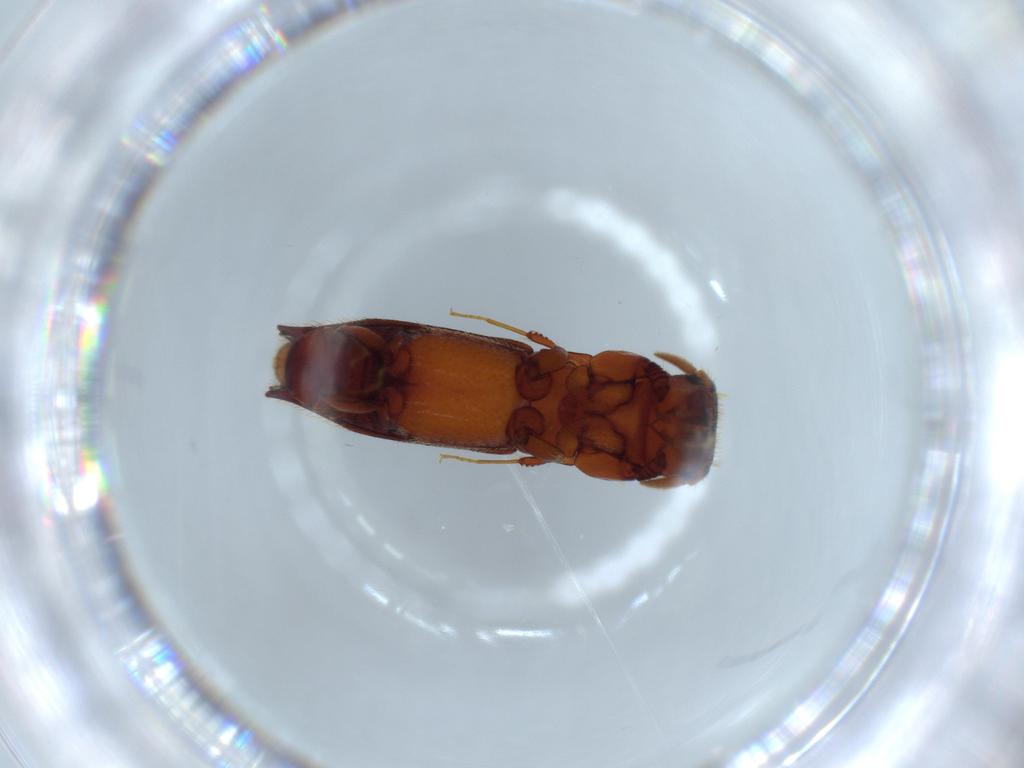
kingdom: Animalia
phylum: Arthropoda
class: Insecta
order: Coleoptera
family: Curculionidae
